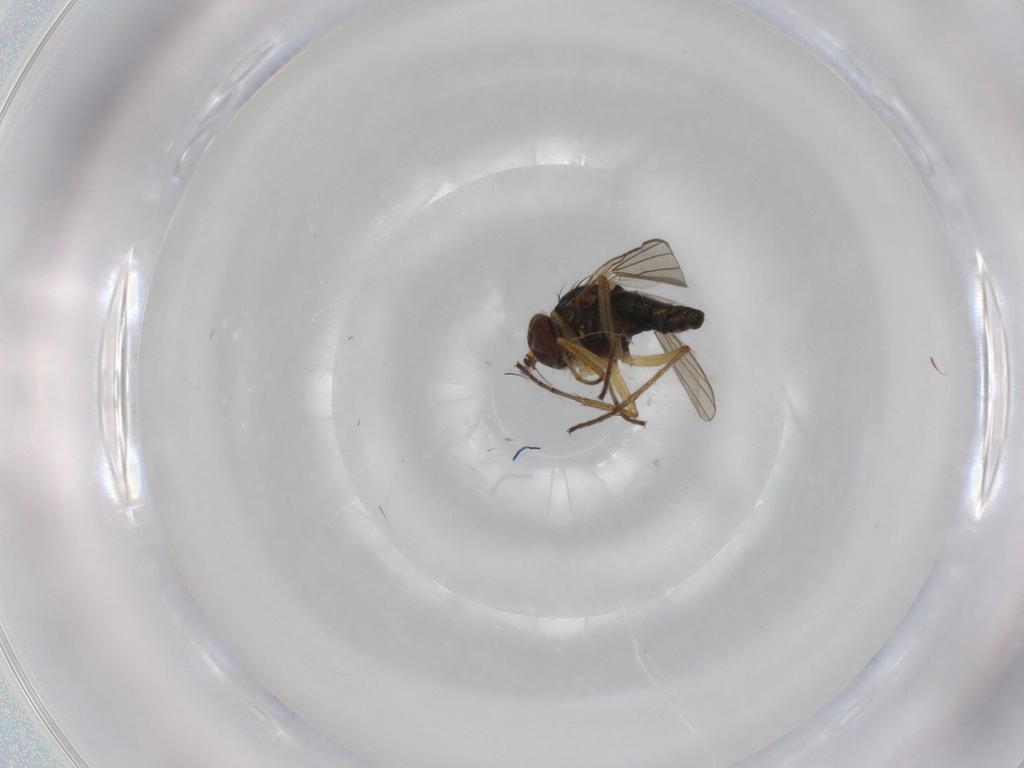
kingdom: Animalia
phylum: Arthropoda
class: Insecta
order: Diptera
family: Dolichopodidae
